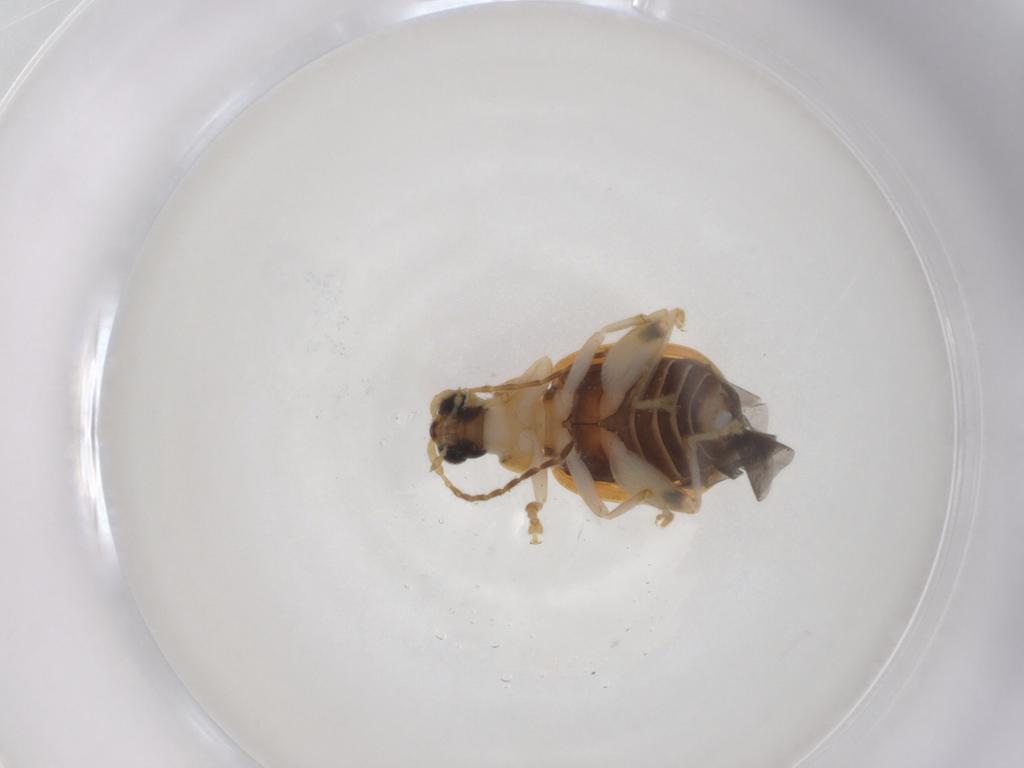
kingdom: Animalia
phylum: Arthropoda
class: Insecta
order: Coleoptera
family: Chrysomelidae
